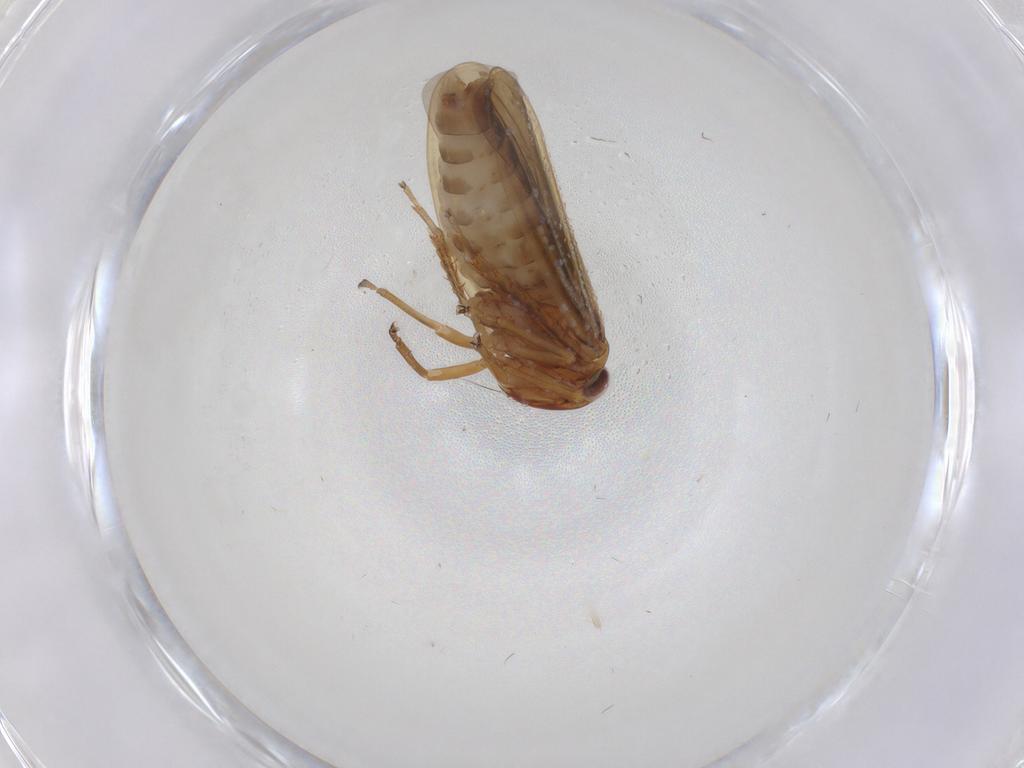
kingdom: Animalia
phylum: Arthropoda
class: Insecta
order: Hemiptera
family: Cicadellidae
